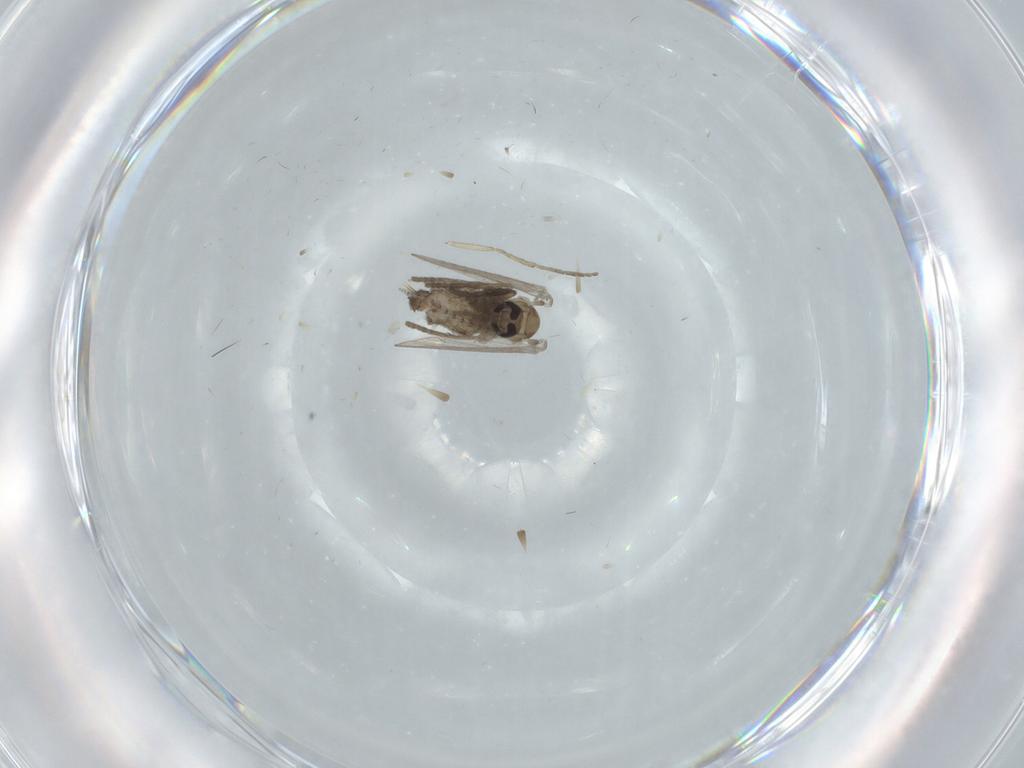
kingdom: Animalia
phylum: Arthropoda
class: Insecta
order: Diptera
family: Psychodidae
